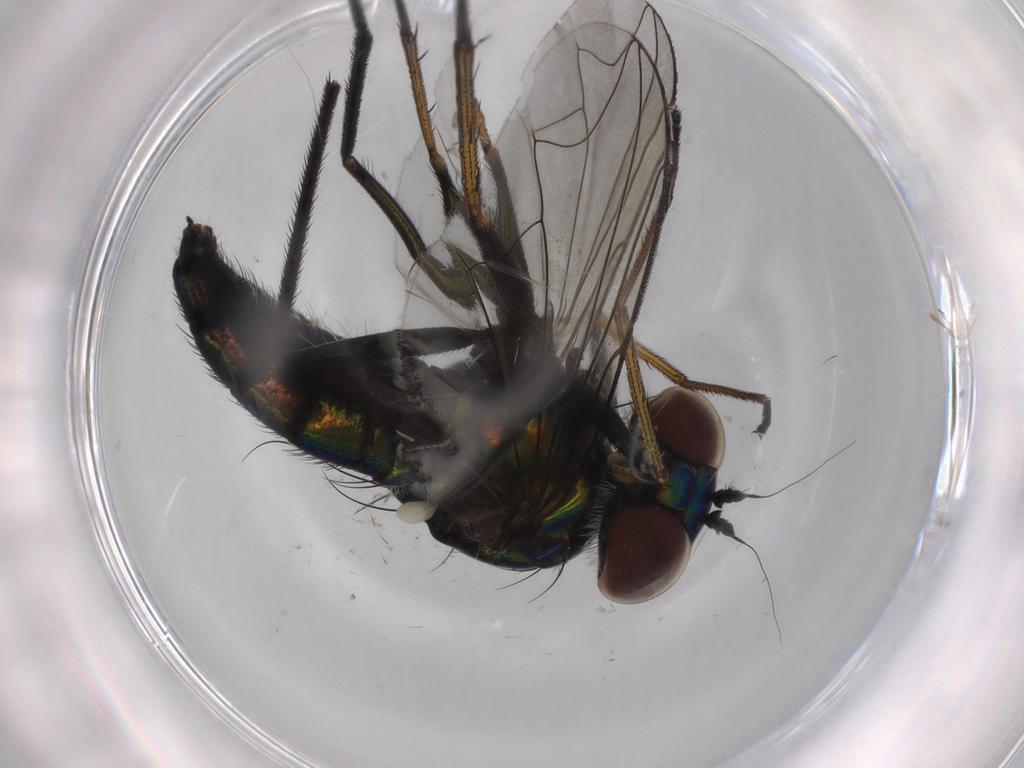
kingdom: Animalia
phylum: Arthropoda
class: Insecta
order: Diptera
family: Dolichopodidae
